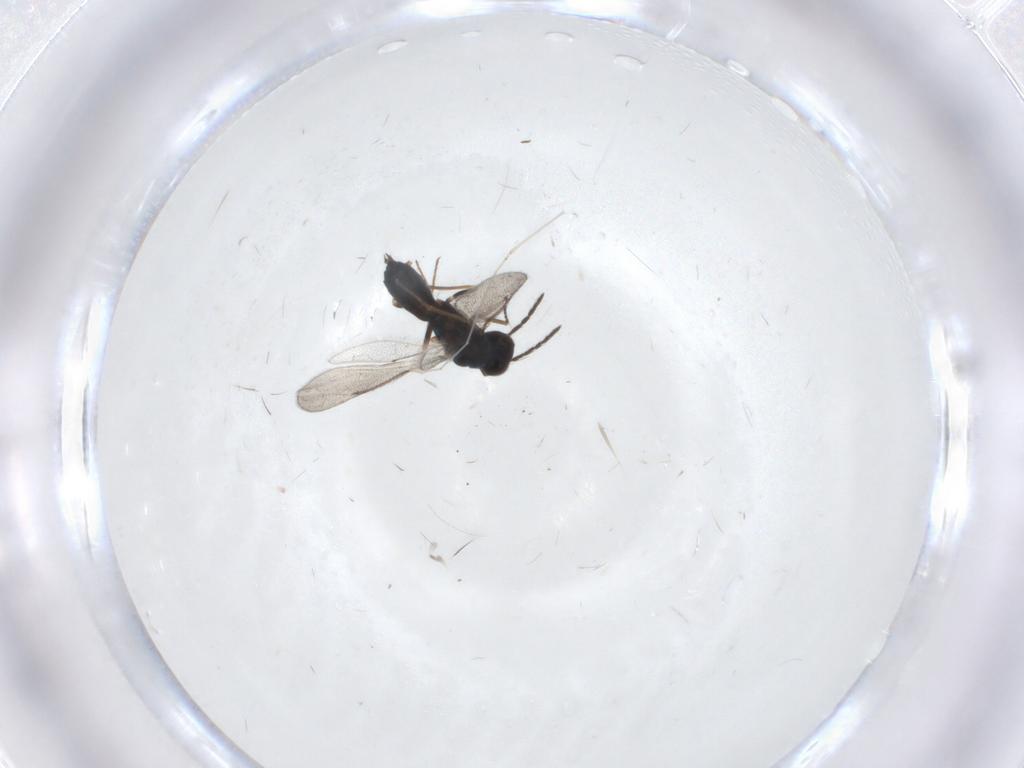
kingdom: Animalia
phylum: Arthropoda
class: Insecta
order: Hymenoptera
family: Eulophidae
